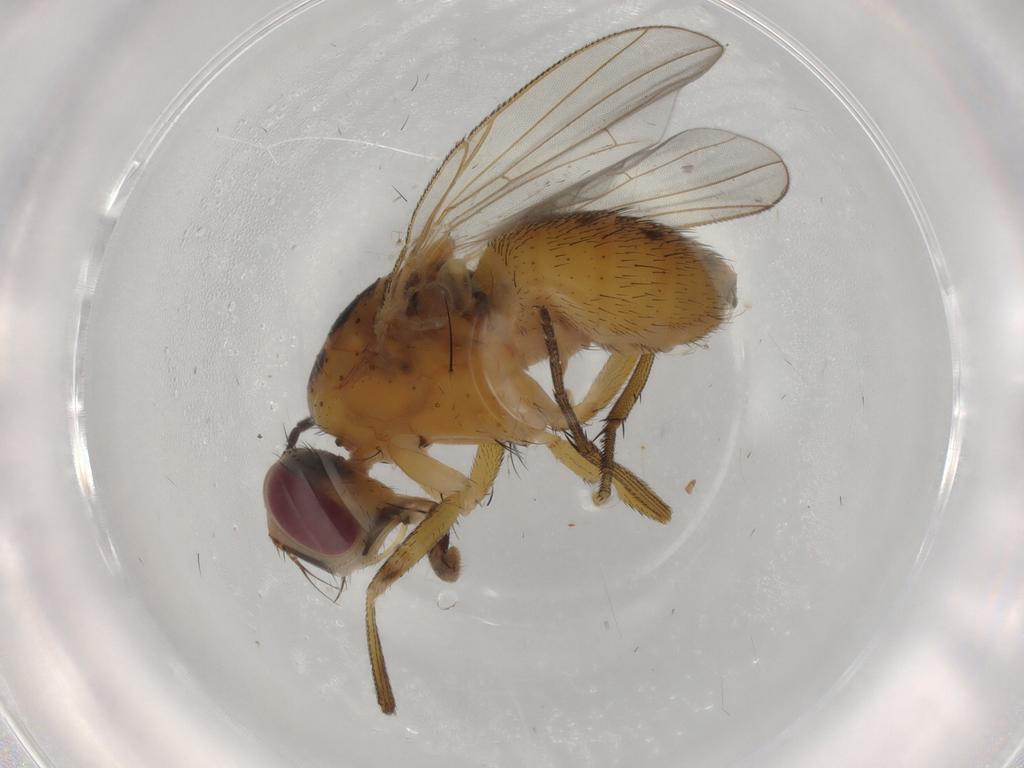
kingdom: Animalia
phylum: Arthropoda
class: Insecta
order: Diptera
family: Muscidae
